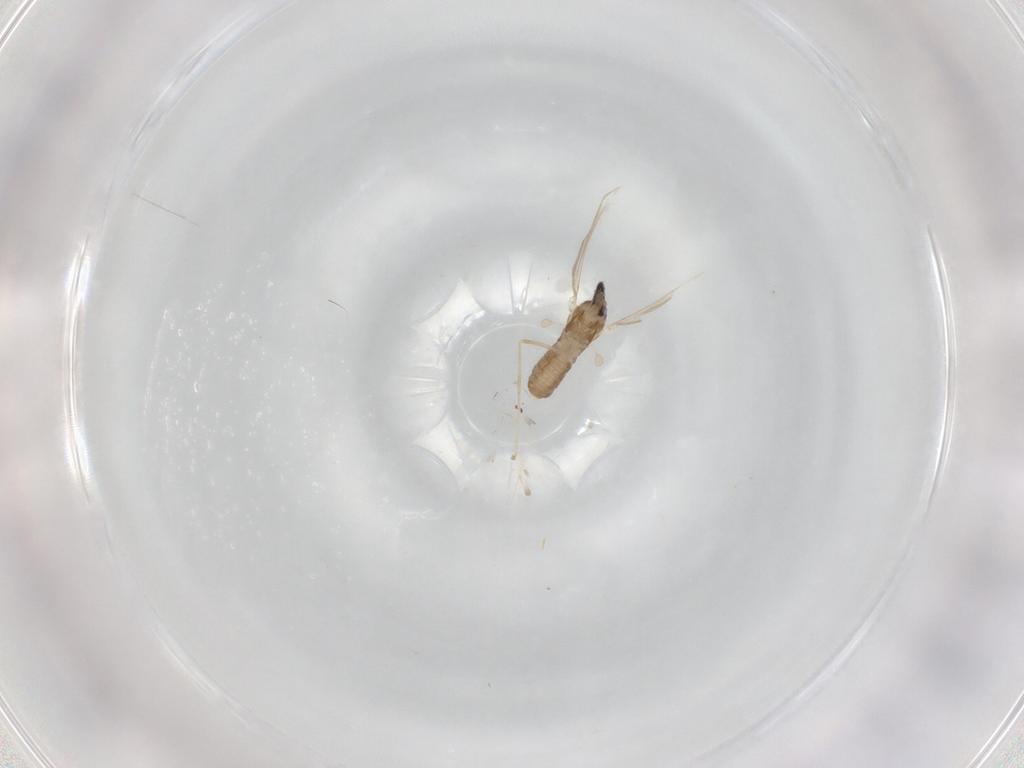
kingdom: Animalia
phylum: Arthropoda
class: Insecta
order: Diptera
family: Cecidomyiidae
